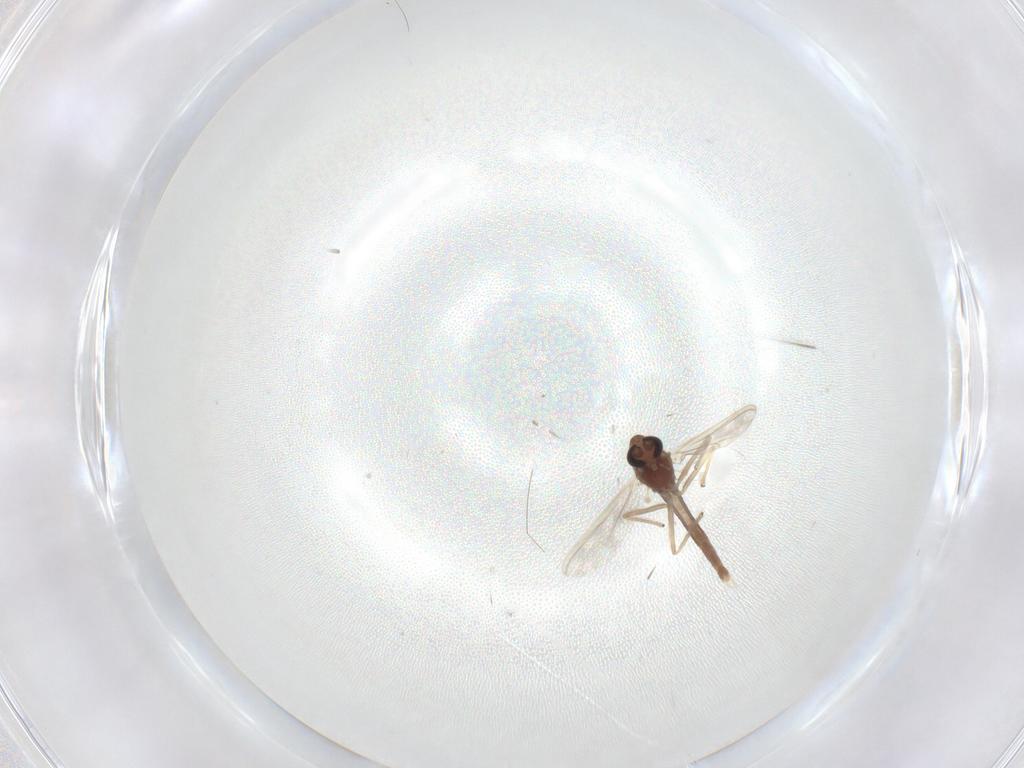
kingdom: Animalia
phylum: Arthropoda
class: Insecta
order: Diptera
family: Chironomidae
